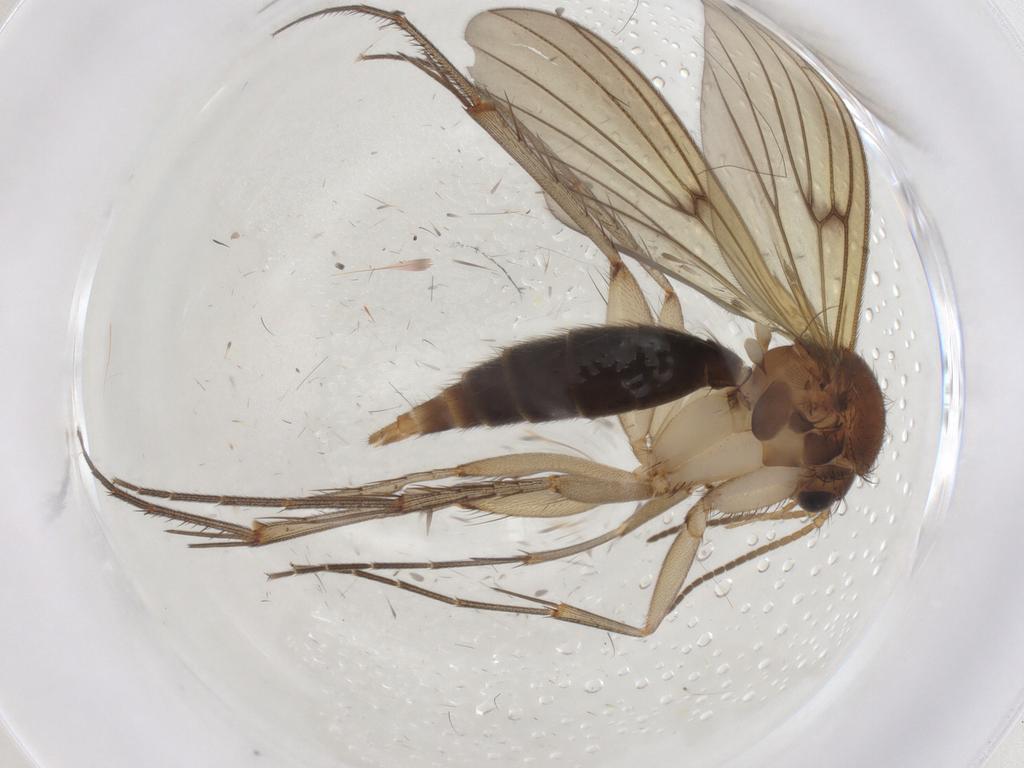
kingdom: Animalia
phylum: Arthropoda
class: Insecta
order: Diptera
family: Mycetophilidae
